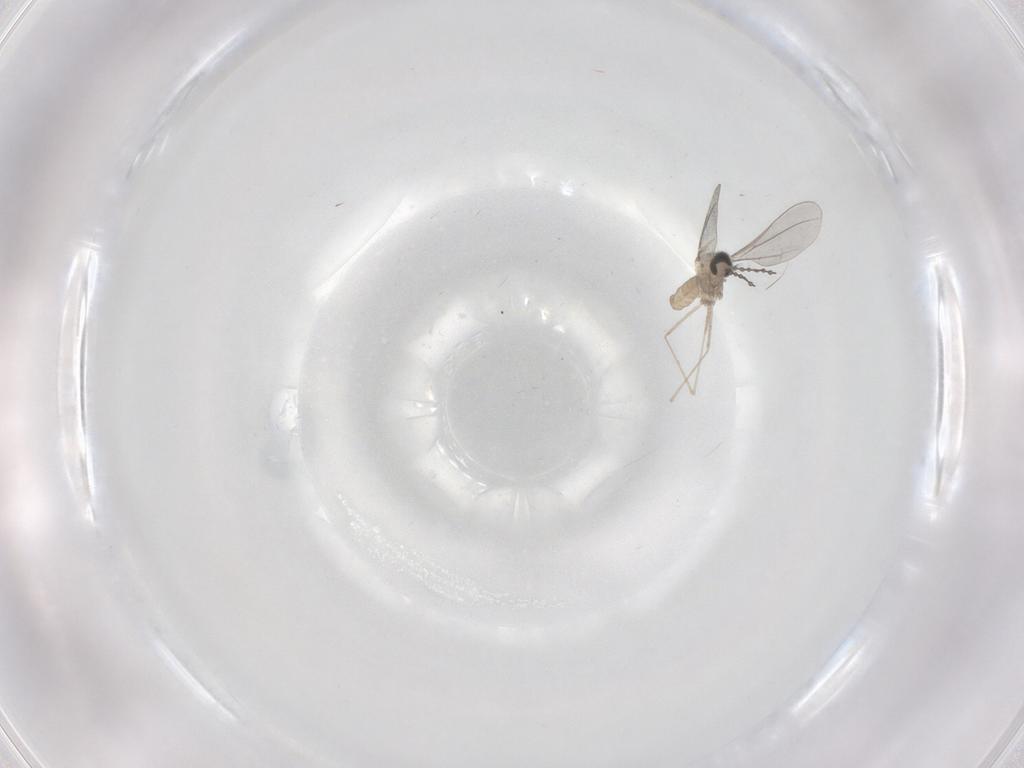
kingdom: Animalia
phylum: Arthropoda
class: Insecta
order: Diptera
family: Cecidomyiidae
